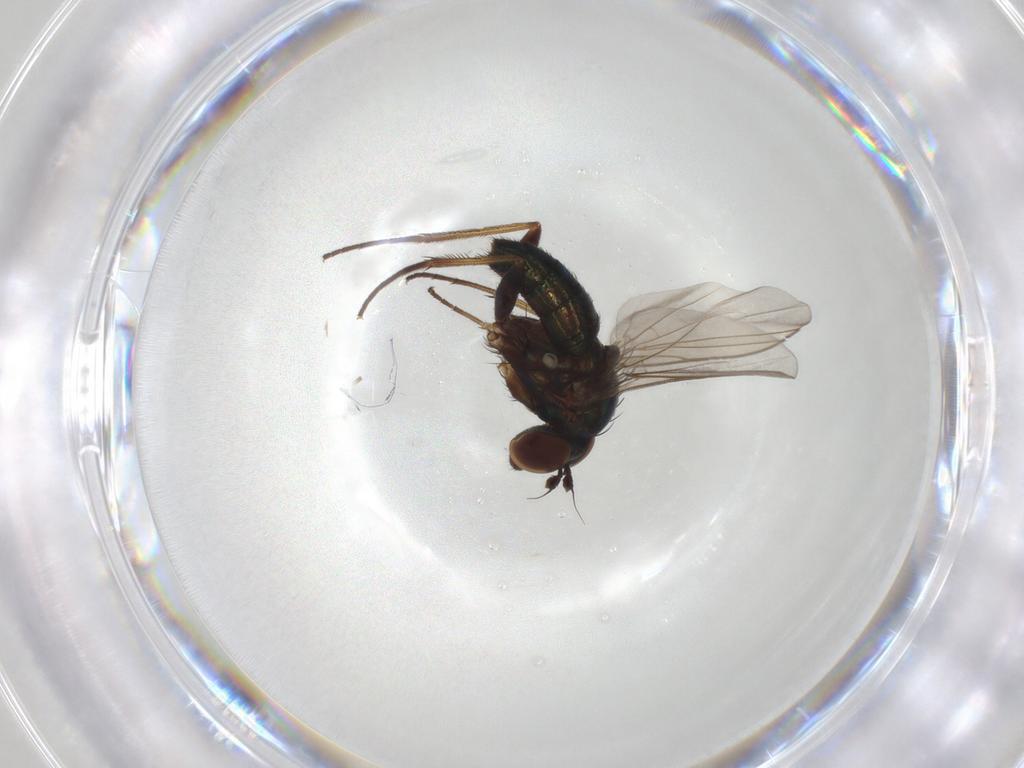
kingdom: Animalia
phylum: Arthropoda
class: Insecta
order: Diptera
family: Dolichopodidae
